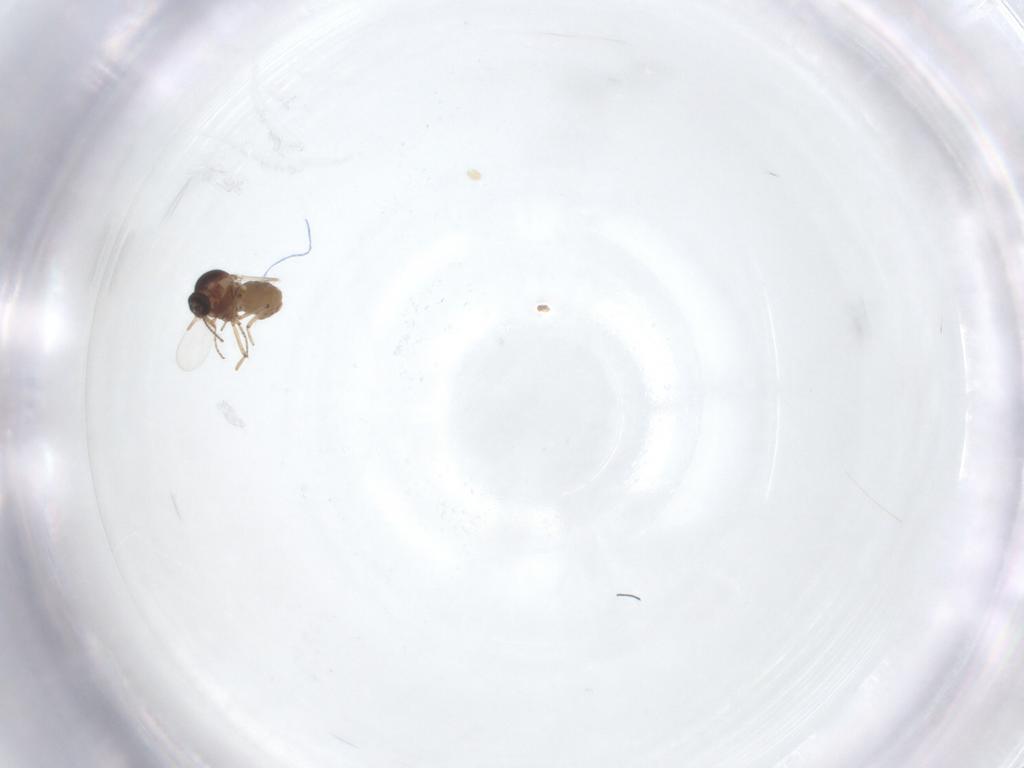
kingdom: Animalia
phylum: Arthropoda
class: Insecta
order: Diptera
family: Ceratopogonidae
